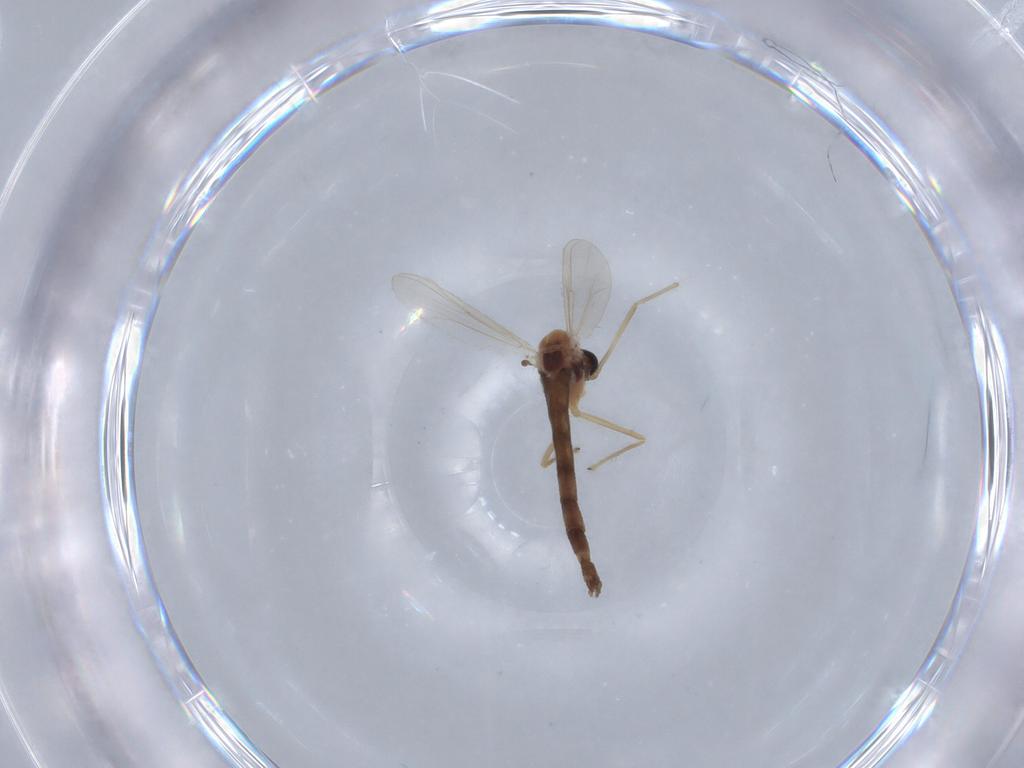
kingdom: Animalia
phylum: Arthropoda
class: Insecta
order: Diptera
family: Chironomidae
